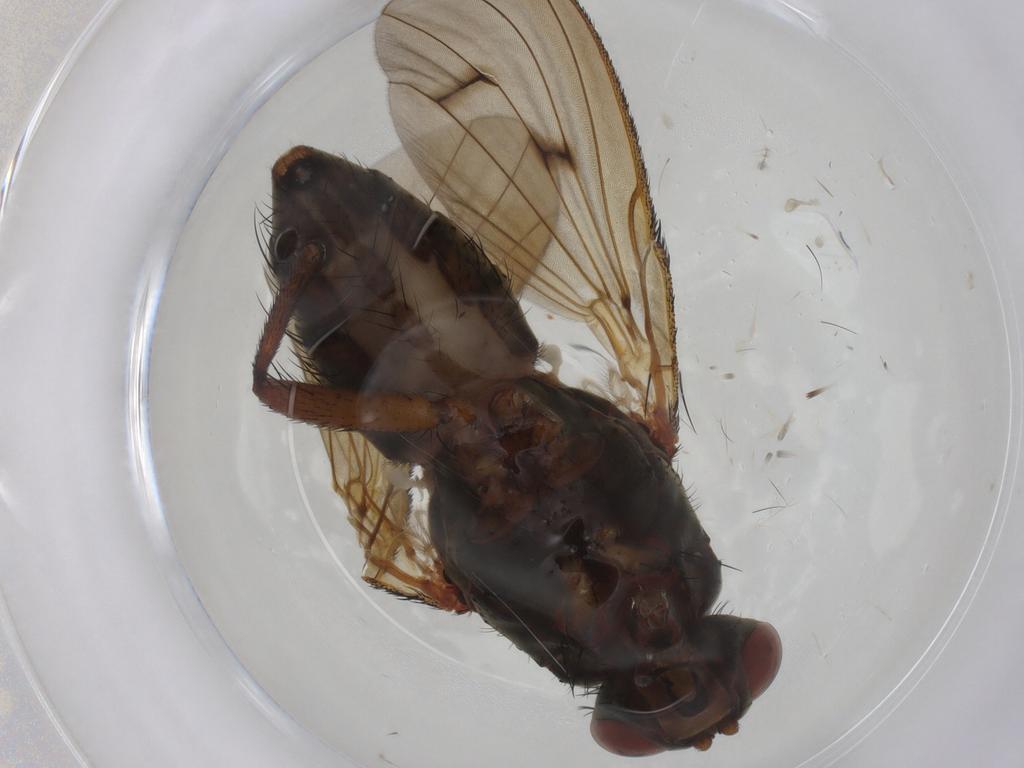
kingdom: Animalia
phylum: Arthropoda
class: Insecta
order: Diptera
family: Anthomyiidae
